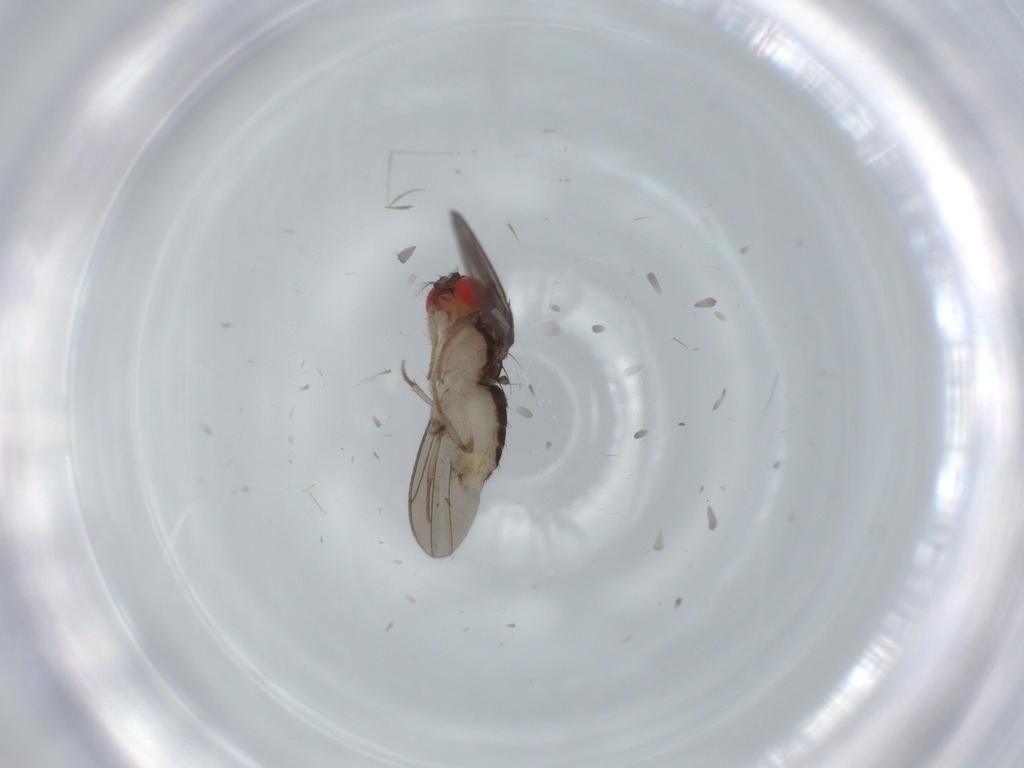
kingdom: Animalia
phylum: Arthropoda
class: Insecta
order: Diptera
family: Drosophilidae
